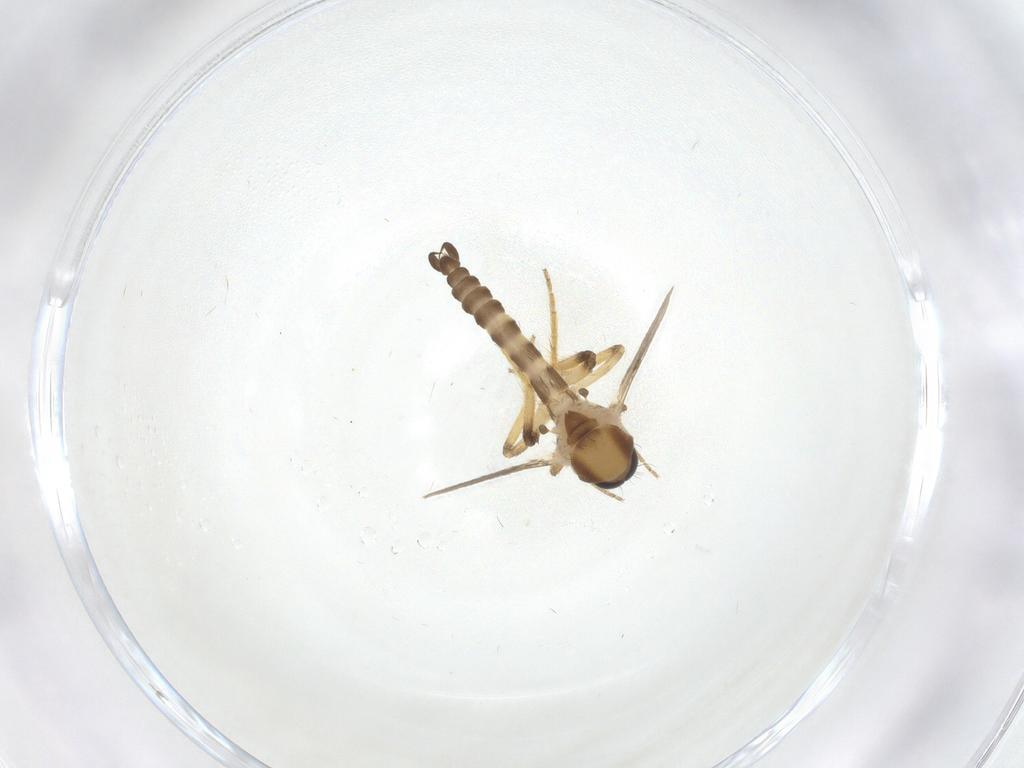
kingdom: Animalia
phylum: Arthropoda
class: Insecta
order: Diptera
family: Ceratopogonidae
